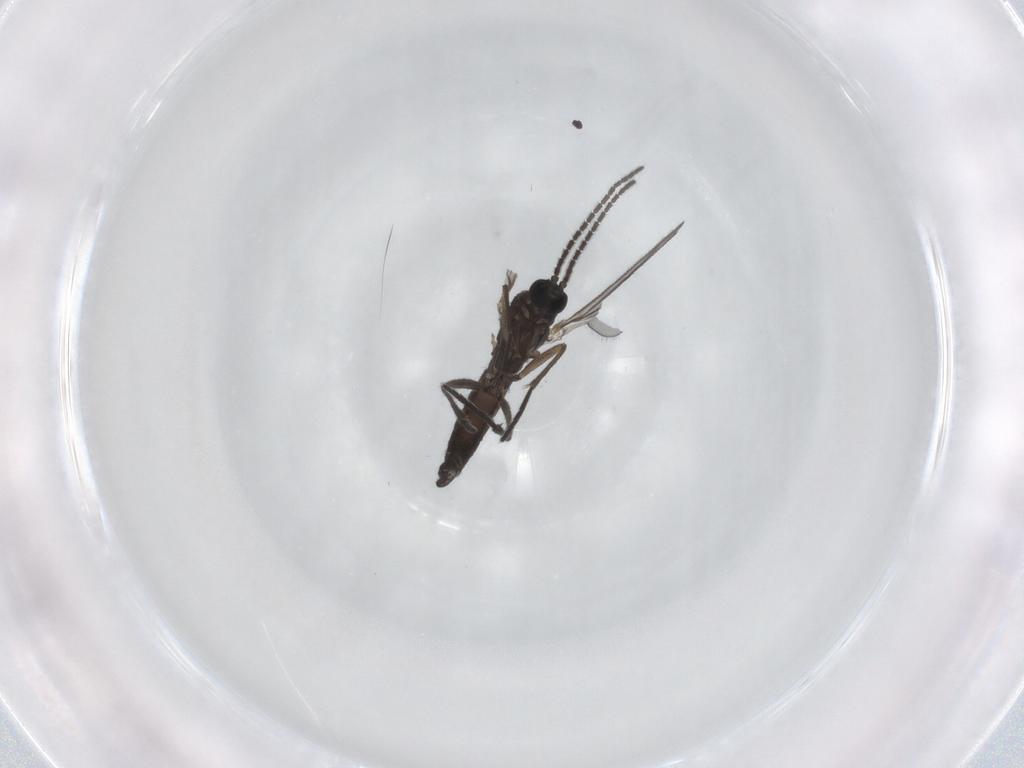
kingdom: Animalia
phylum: Arthropoda
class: Insecta
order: Diptera
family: Sciaridae
